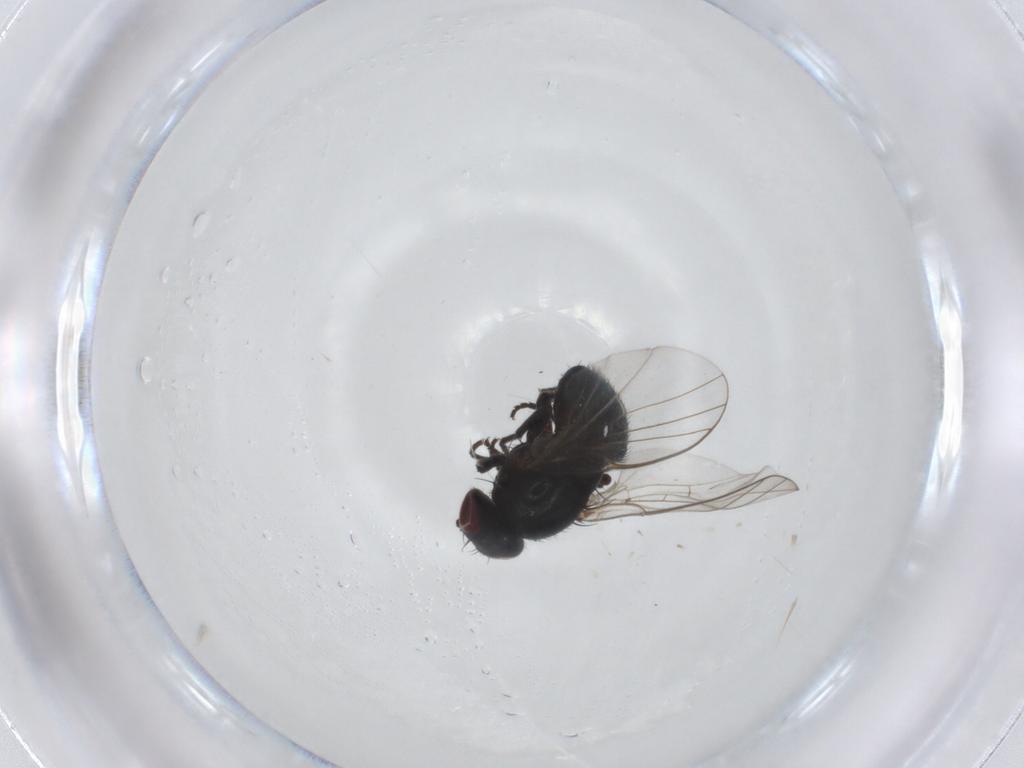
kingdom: Animalia
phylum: Arthropoda
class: Insecta
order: Diptera
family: Agromyzidae
